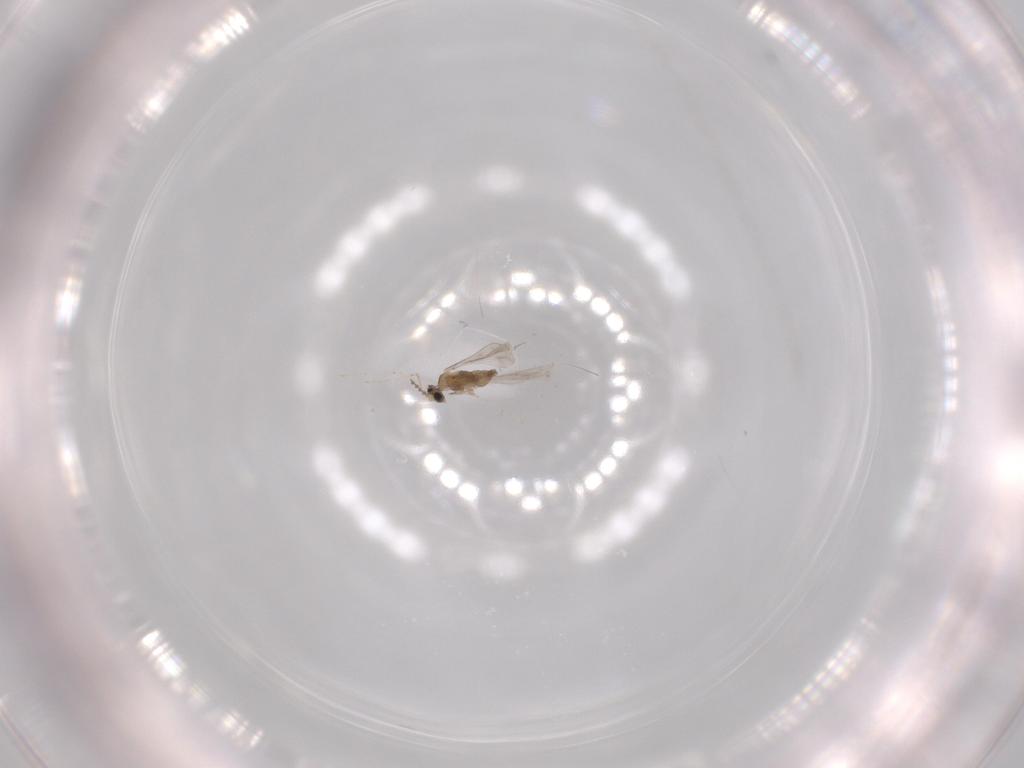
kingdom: Animalia
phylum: Arthropoda
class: Insecta
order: Diptera
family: Cecidomyiidae
